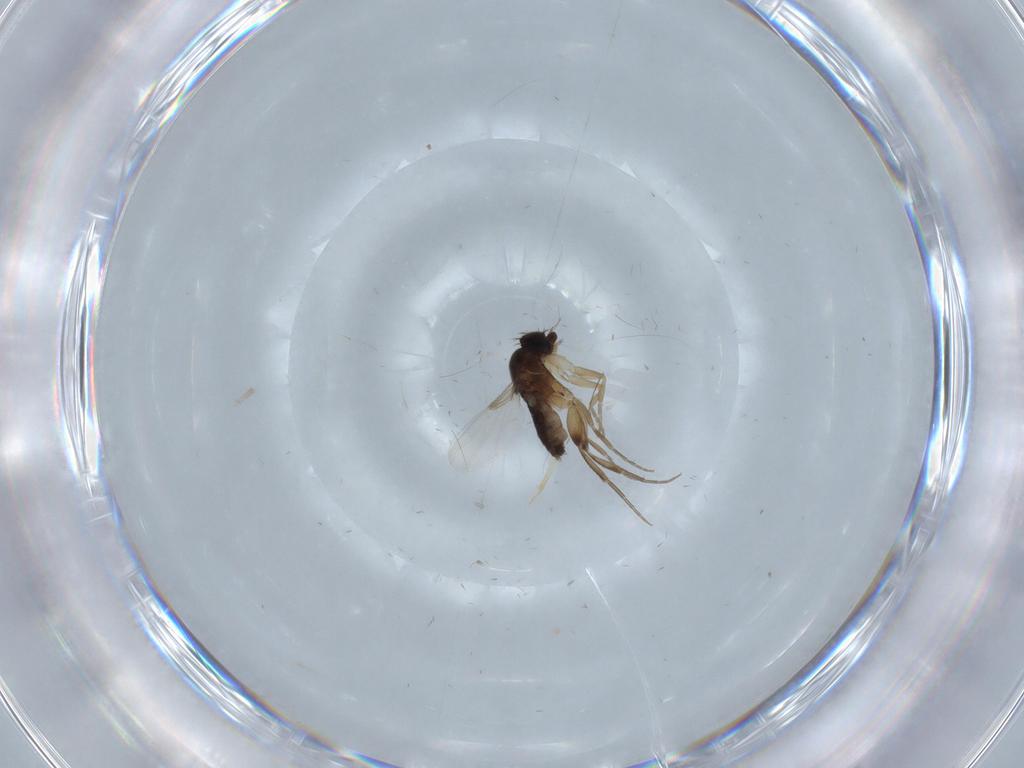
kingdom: Animalia
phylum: Arthropoda
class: Insecta
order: Diptera
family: Phoridae
